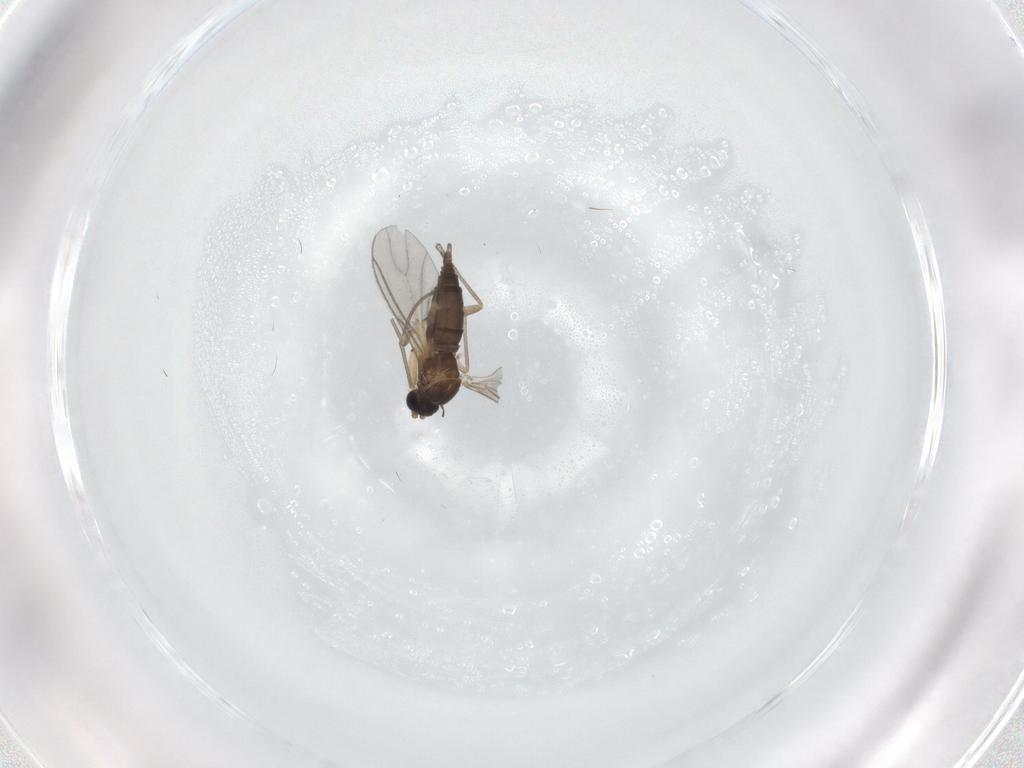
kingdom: Animalia
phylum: Arthropoda
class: Insecta
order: Diptera
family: Sciaridae
